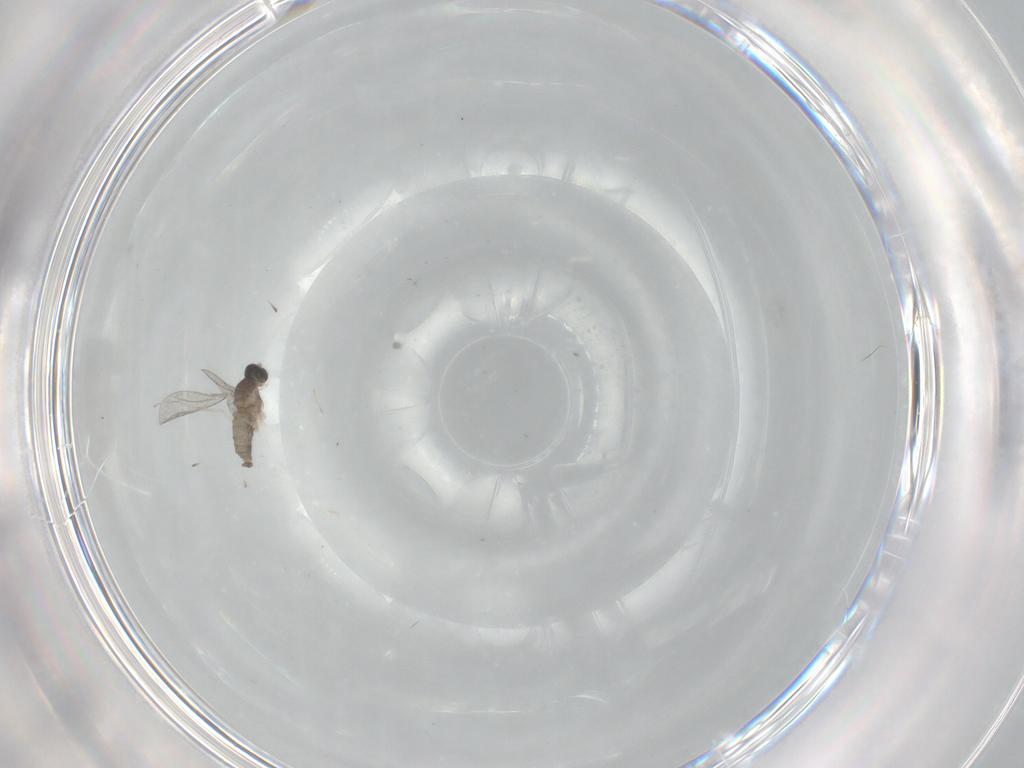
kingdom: Animalia
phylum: Arthropoda
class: Insecta
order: Diptera
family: Cecidomyiidae
